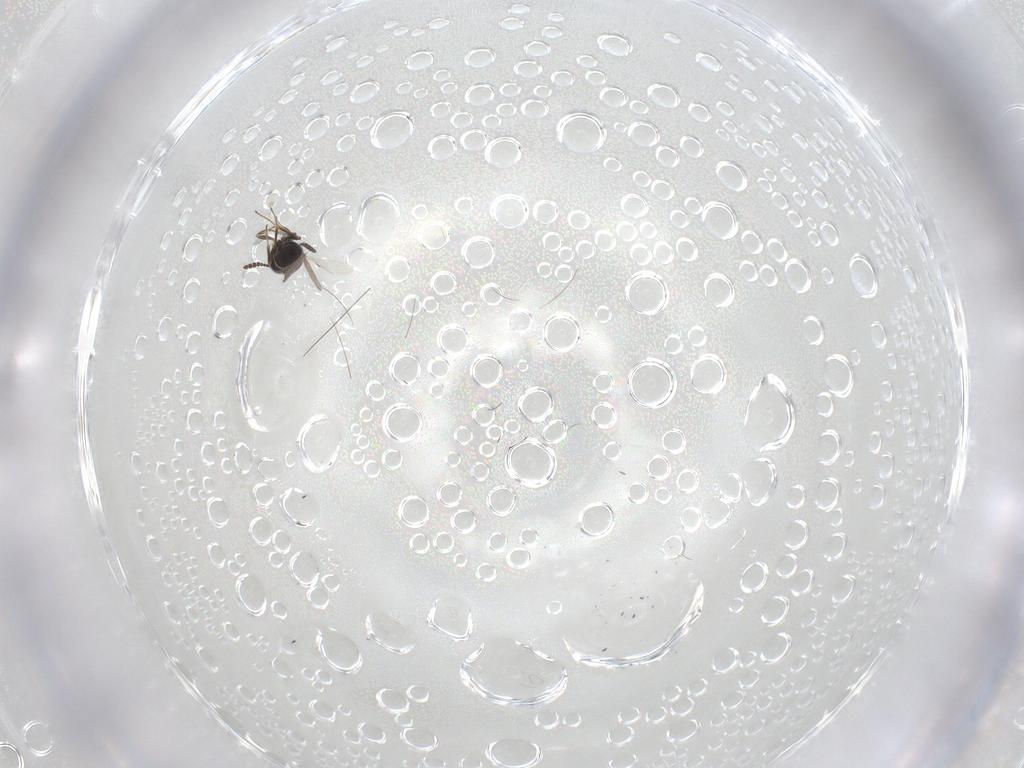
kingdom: Animalia
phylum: Arthropoda
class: Insecta
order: Hymenoptera
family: Scelionidae
